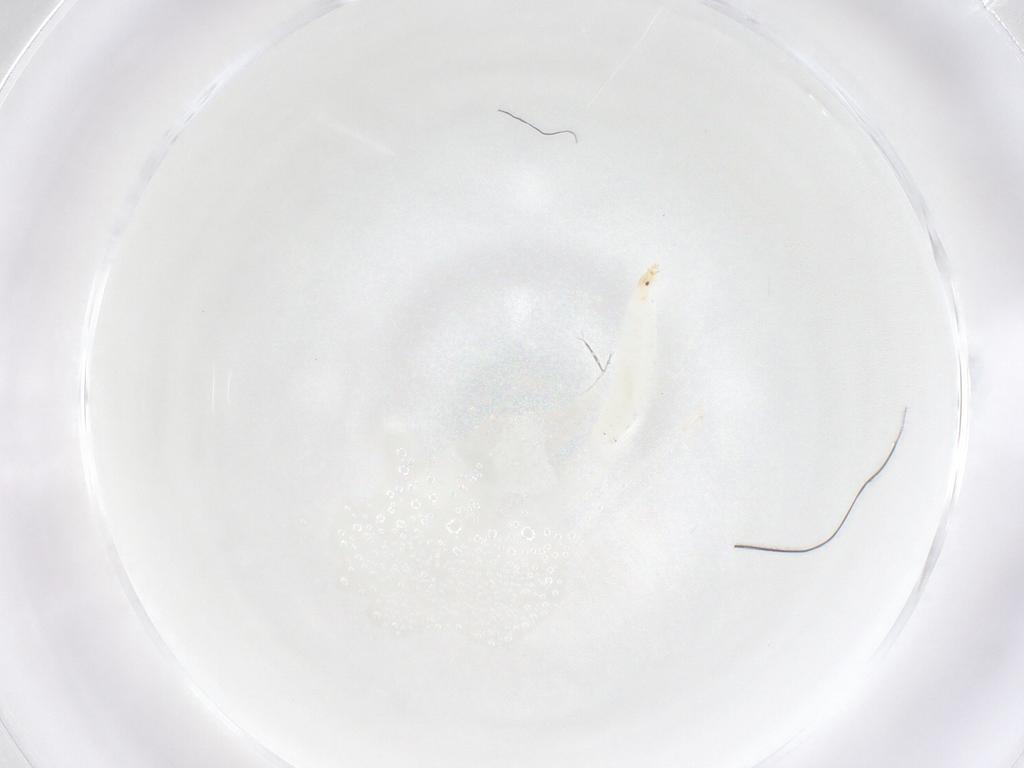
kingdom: Animalia
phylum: Arthropoda
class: Insecta
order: Diptera
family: Stratiomyidae
